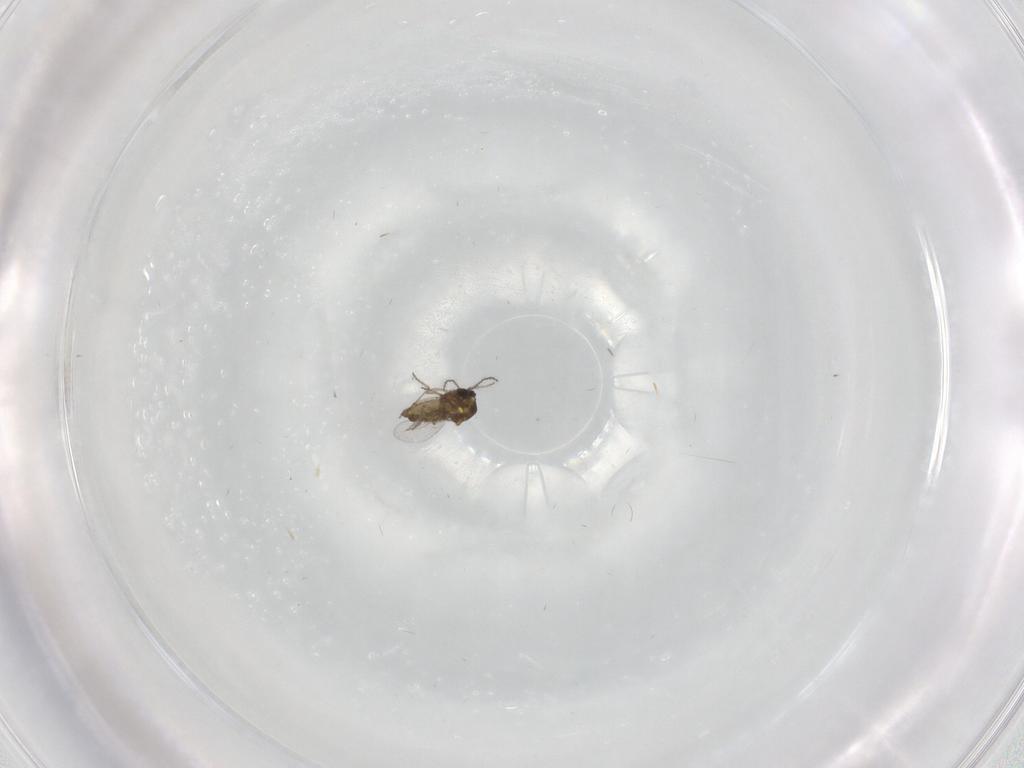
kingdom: Animalia
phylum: Arthropoda
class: Insecta
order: Diptera
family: Ceratopogonidae
